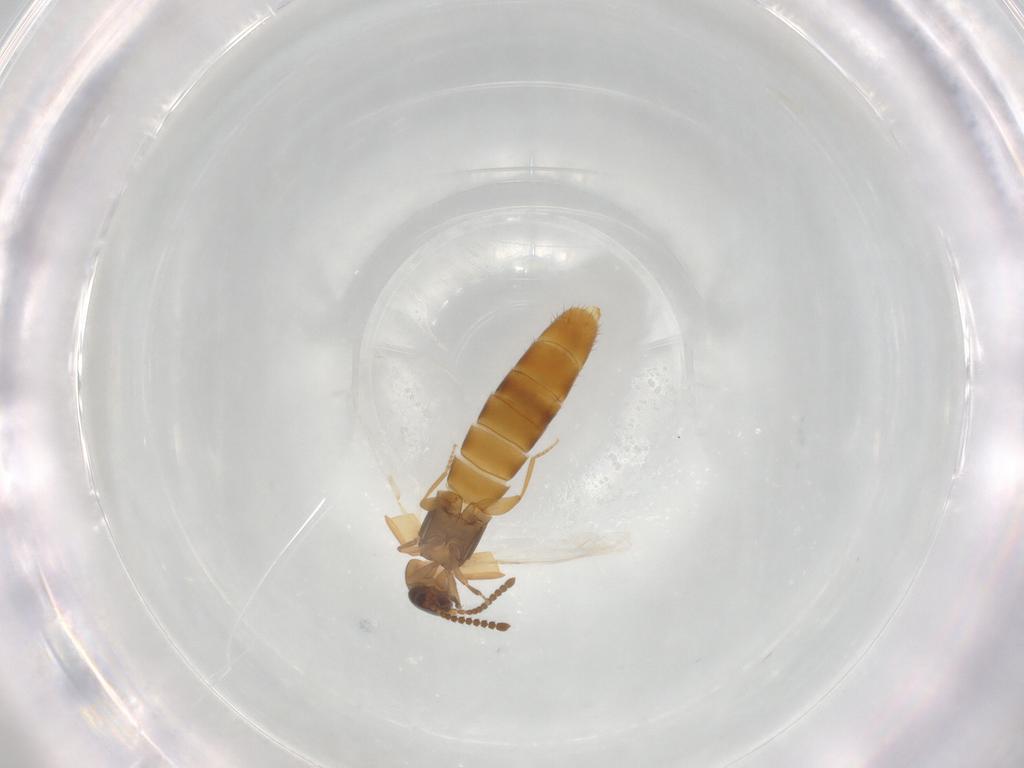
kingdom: Animalia
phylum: Arthropoda
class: Insecta
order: Coleoptera
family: Staphylinidae
